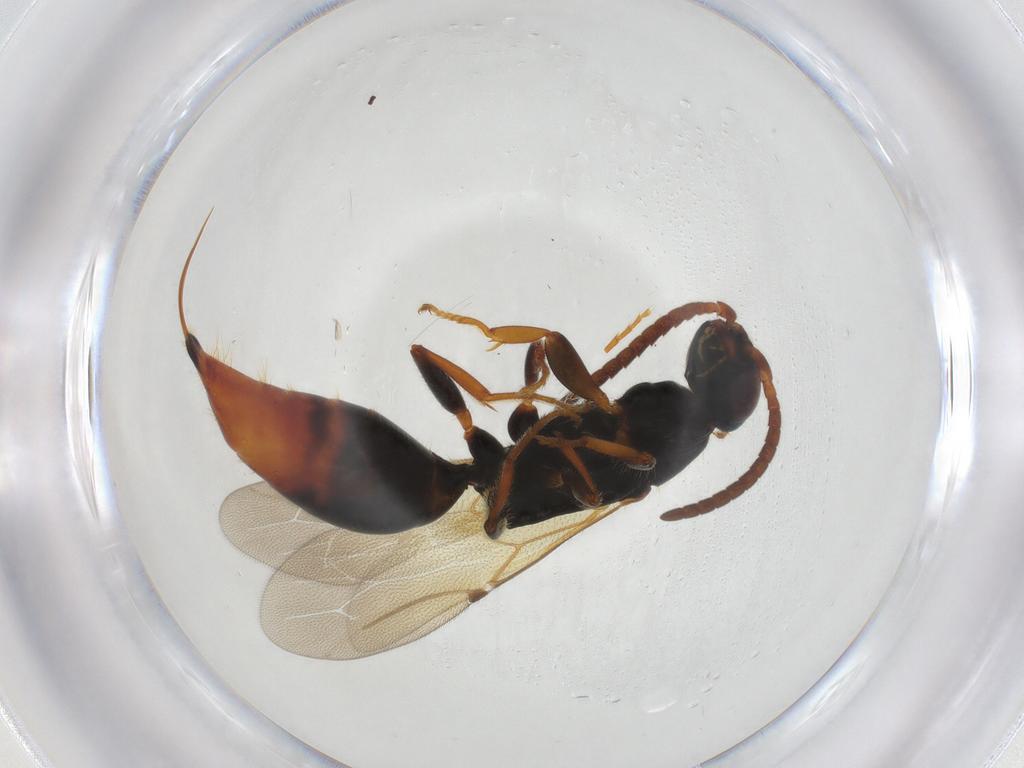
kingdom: Animalia
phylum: Arthropoda
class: Insecta
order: Hymenoptera
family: Bethylidae
